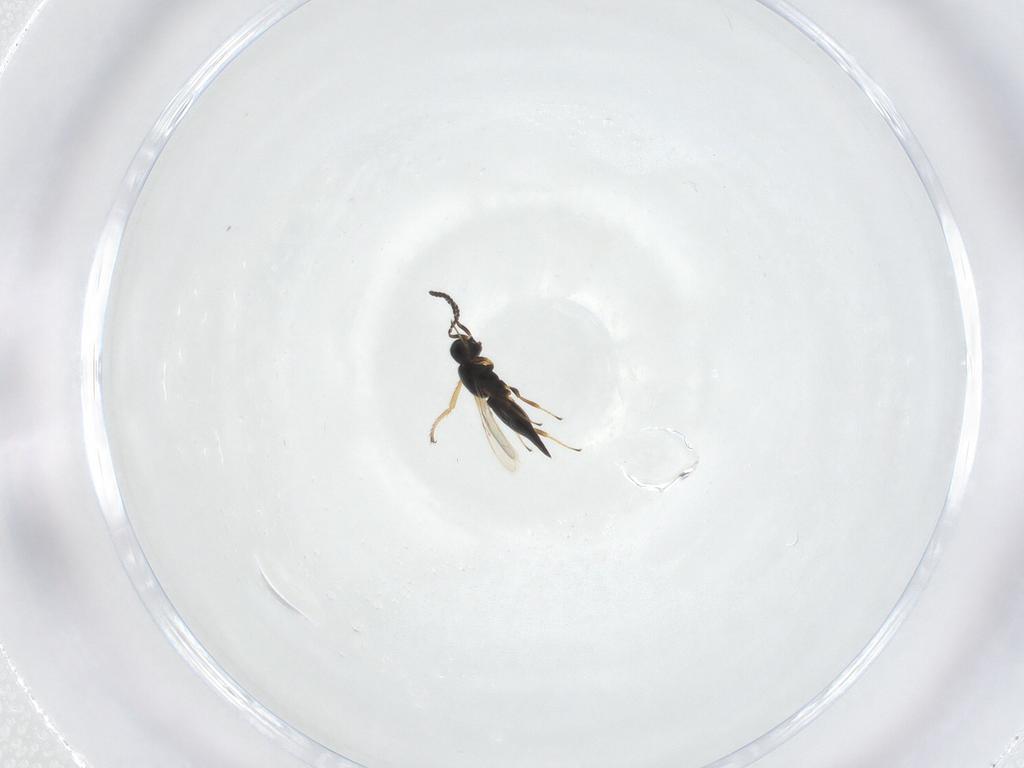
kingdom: Animalia
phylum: Arthropoda
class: Insecta
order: Hymenoptera
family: Scelionidae
